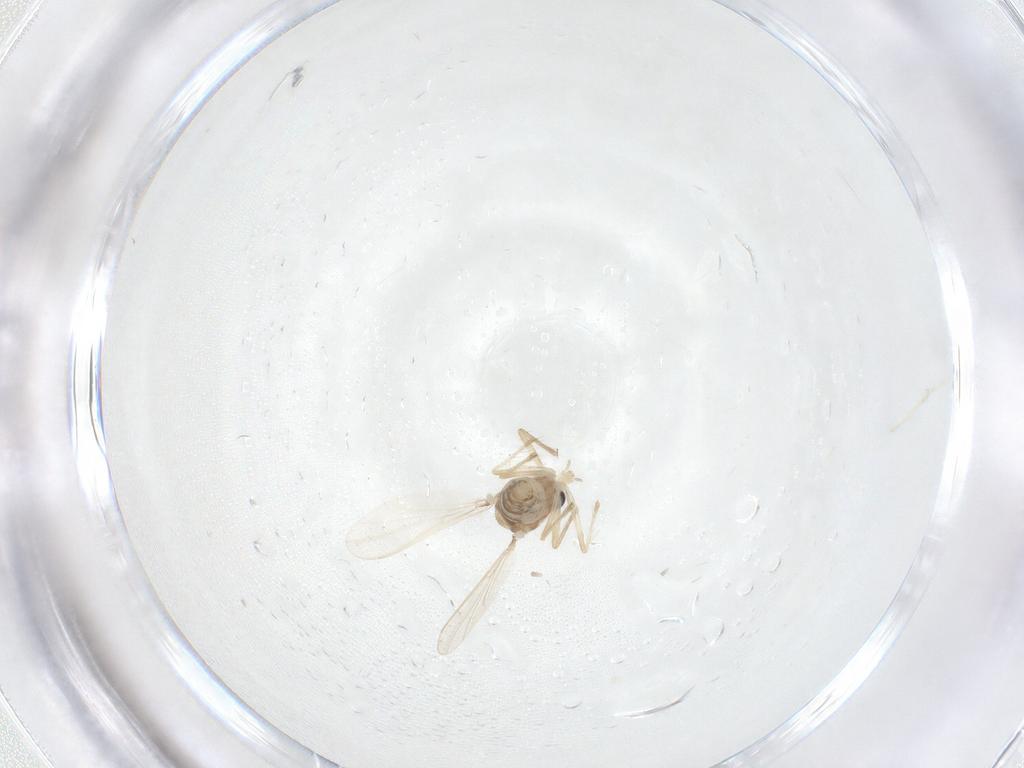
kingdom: Animalia
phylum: Arthropoda
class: Insecta
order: Diptera
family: Chironomidae
